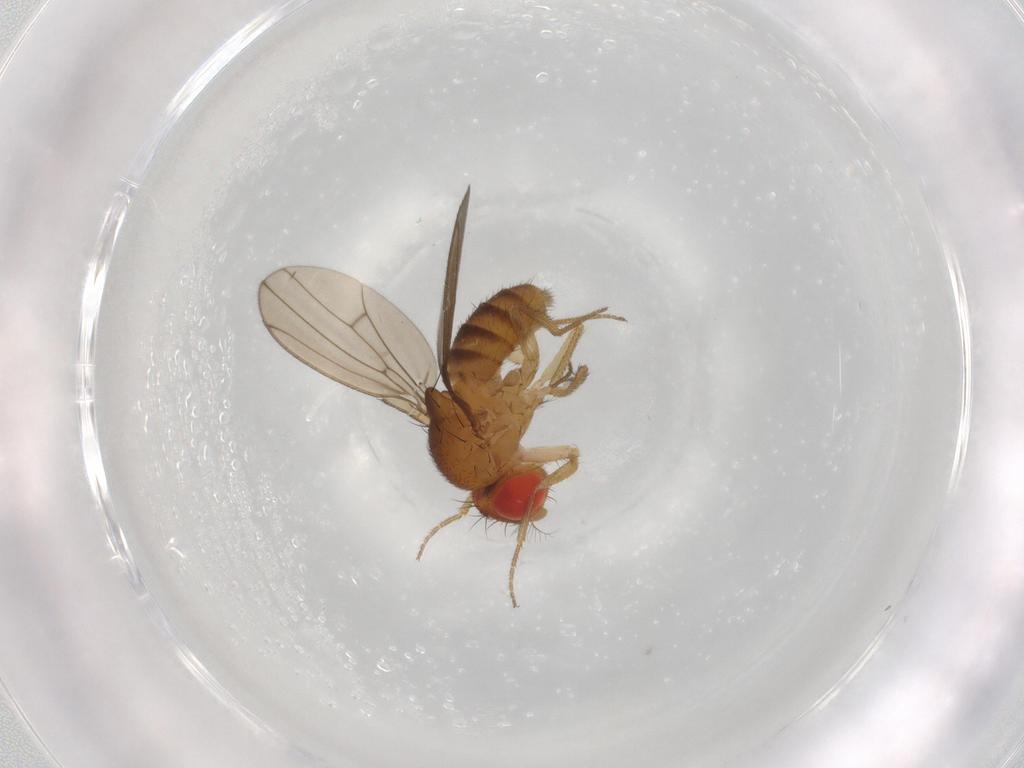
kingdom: Animalia
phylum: Arthropoda
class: Insecta
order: Diptera
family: Drosophilidae
